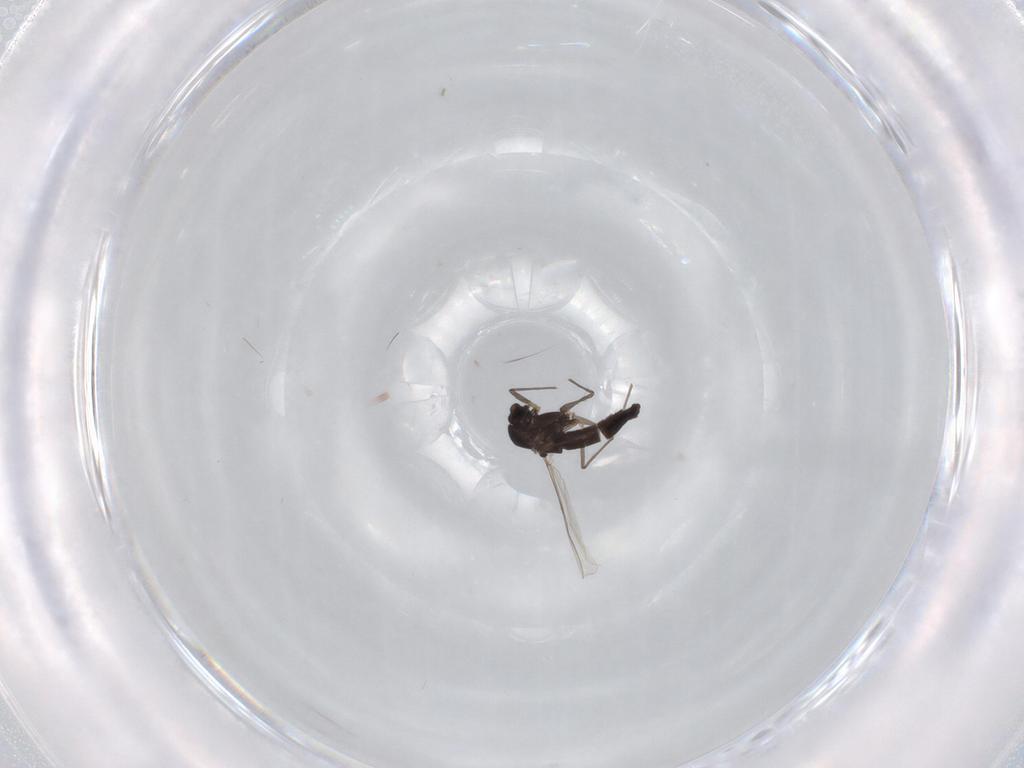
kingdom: Animalia
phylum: Arthropoda
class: Insecta
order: Diptera
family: Chironomidae
